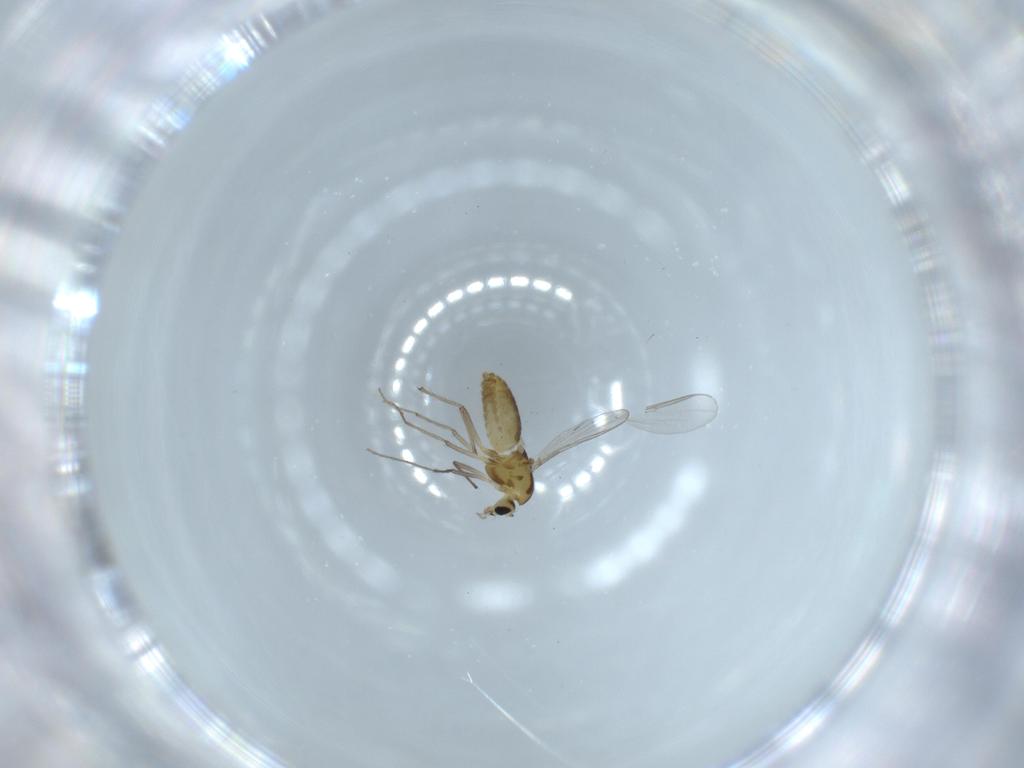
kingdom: Animalia
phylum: Arthropoda
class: Insecta
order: Diptera
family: Chironomidae
